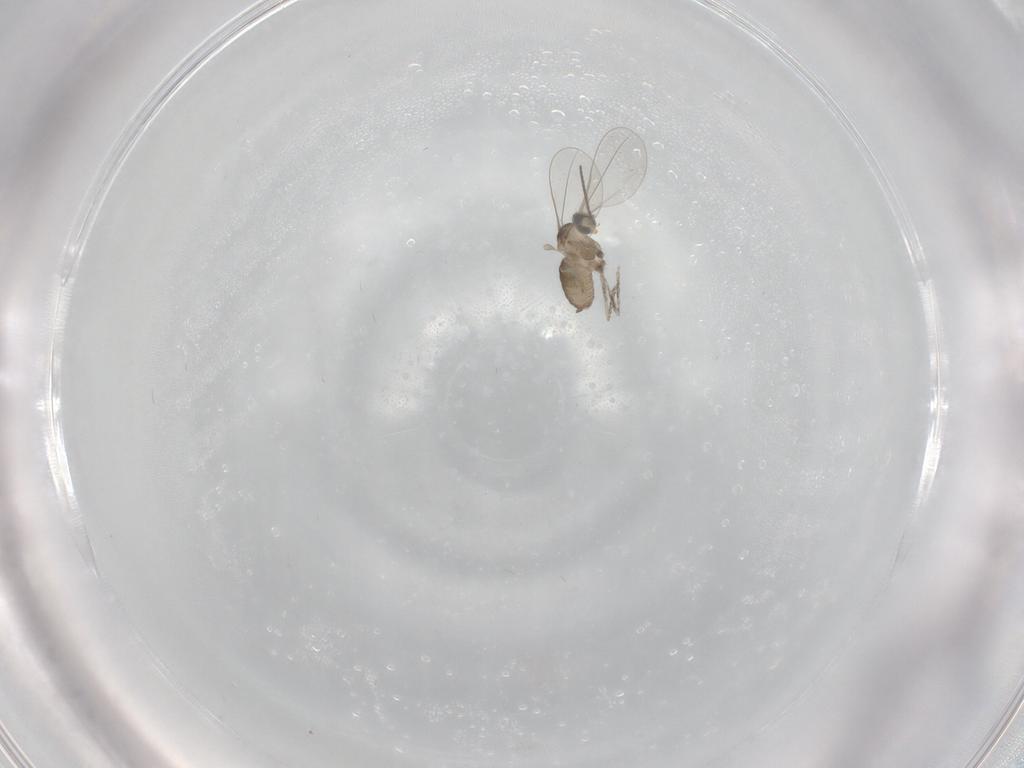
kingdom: Animalia
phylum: Arthropoda
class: Insecta
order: Diptera
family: Cecidomyiidae
